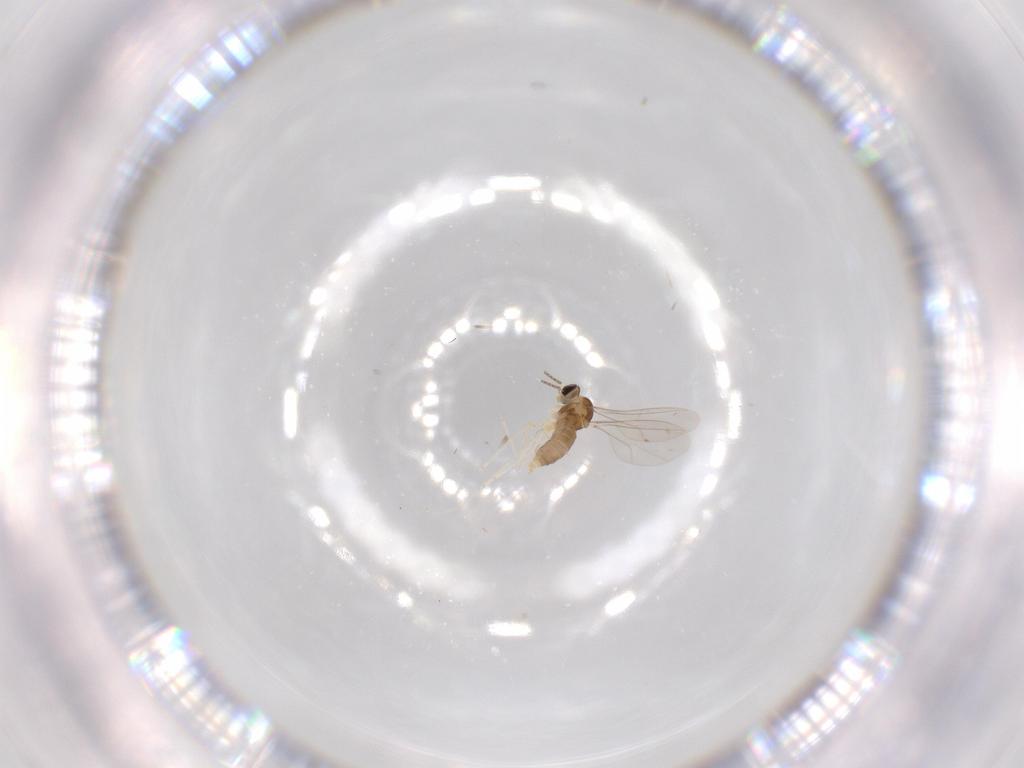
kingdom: Animalia
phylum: Arthropoda
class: Insecta
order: Diptera
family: Cecidomyiidae
